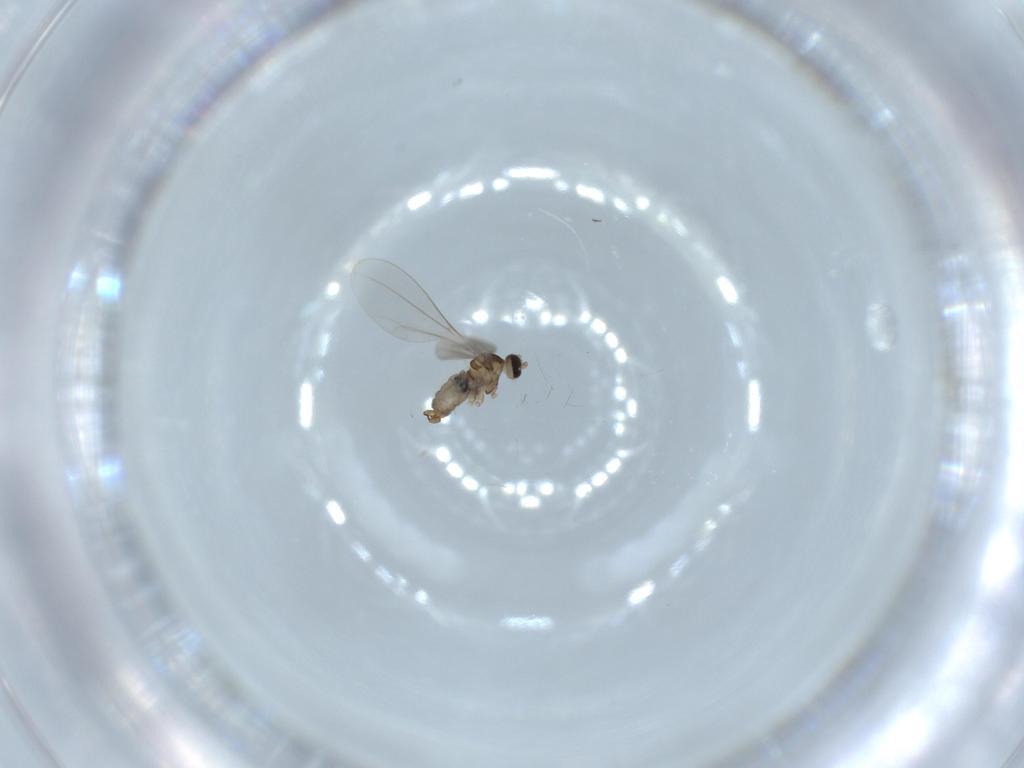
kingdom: Animalia
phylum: Arthropoda
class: Insecta
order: Diptera
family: Cecidomyiidae
